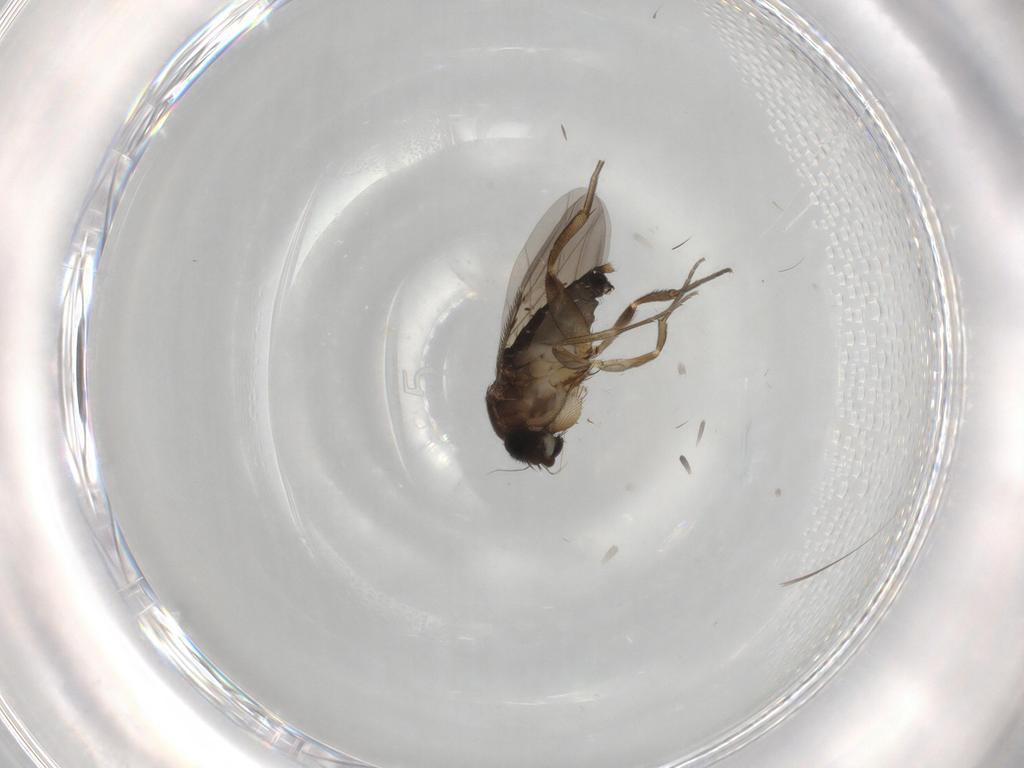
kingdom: Animalia
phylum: Arthropoda
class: Insecta
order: Diptera
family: Phoridae
